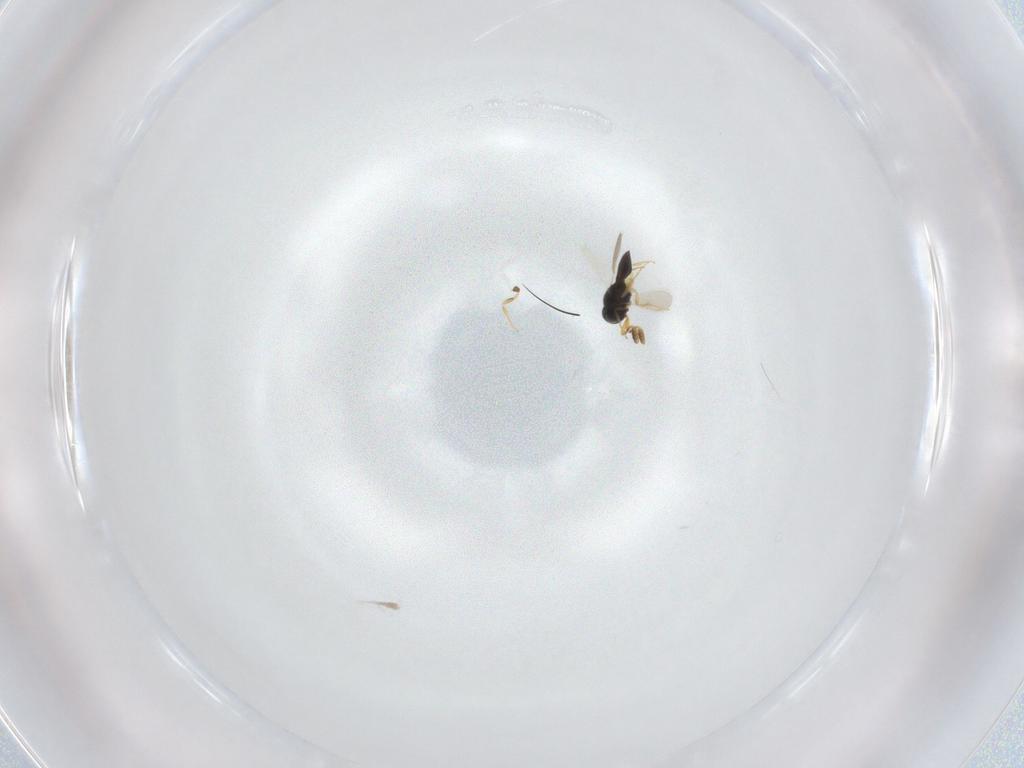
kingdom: Animalia
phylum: Arthropoda
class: Insecta
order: Hymenoptera
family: Scelionidae
